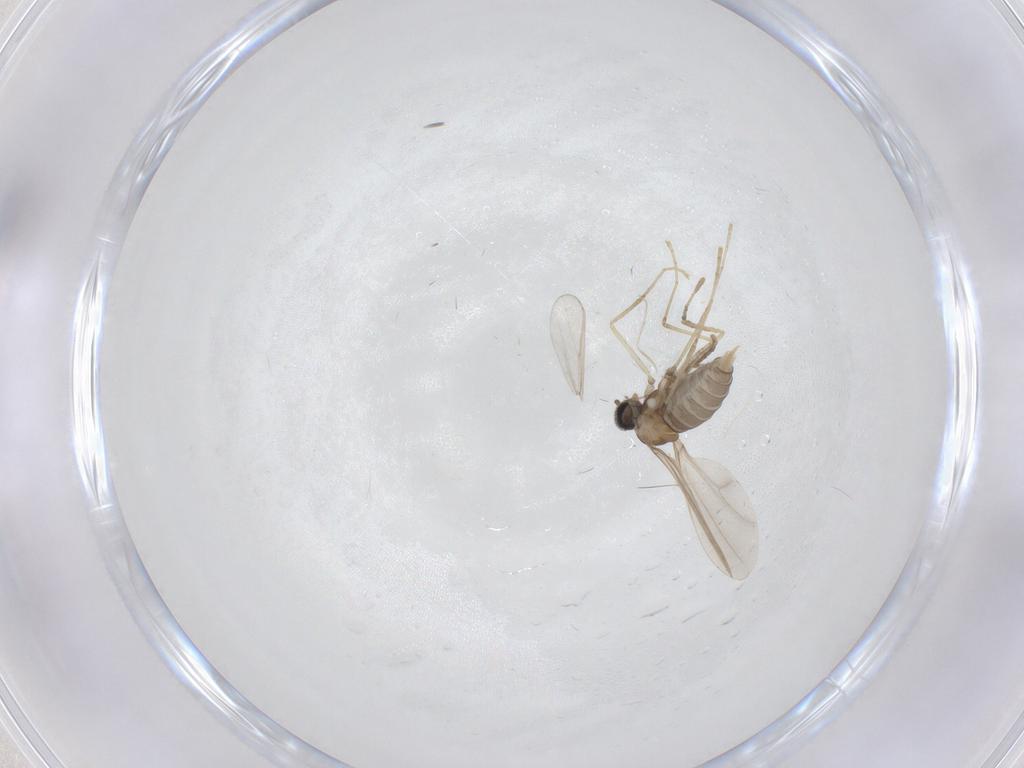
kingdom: Animalia
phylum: Arthropoda
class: Insecta
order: Diptera
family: Cecidomyiidae
